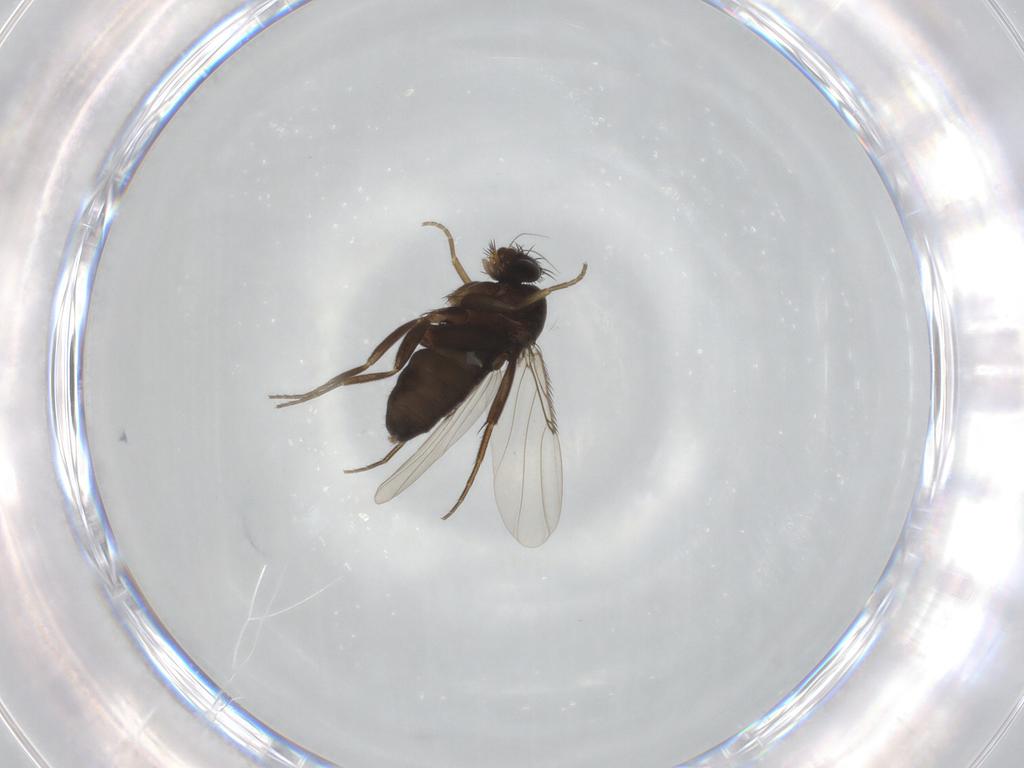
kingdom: Animalia
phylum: Arthropoda
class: Insecta
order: Diptera
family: Phoridae
